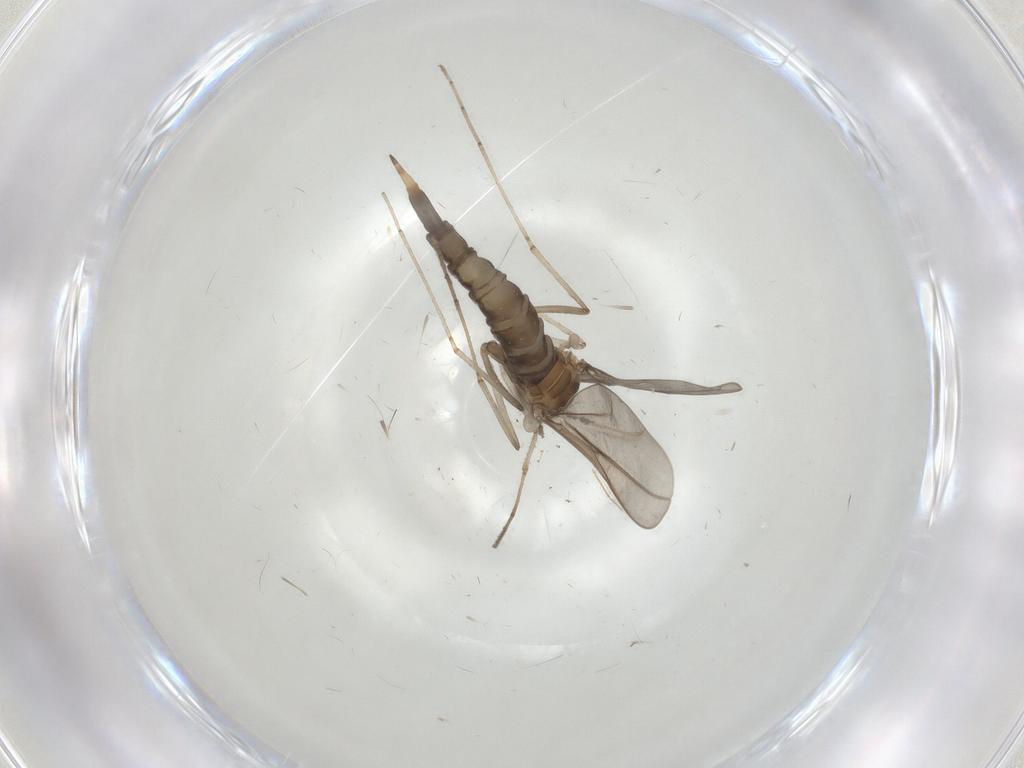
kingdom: Animalia
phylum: Arthropoda
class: Insecta
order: Diptera
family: Cecidomyiidae
